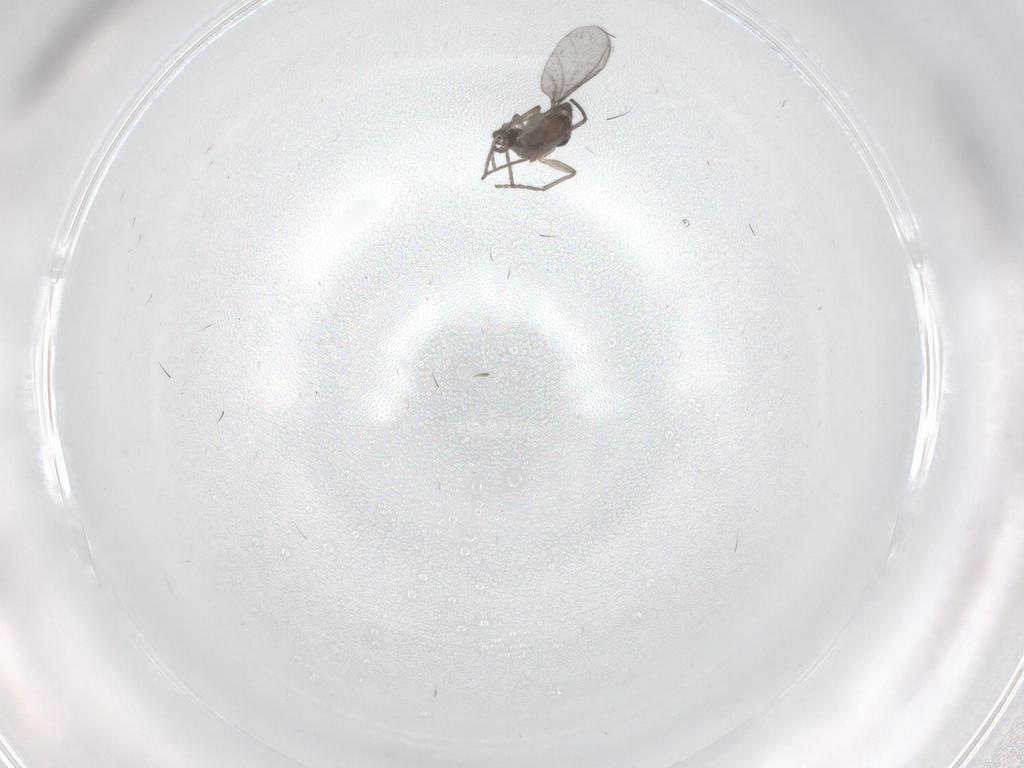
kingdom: Animalia
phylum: Arthropoda
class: Insecta
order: Diptera
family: Sciaridae
